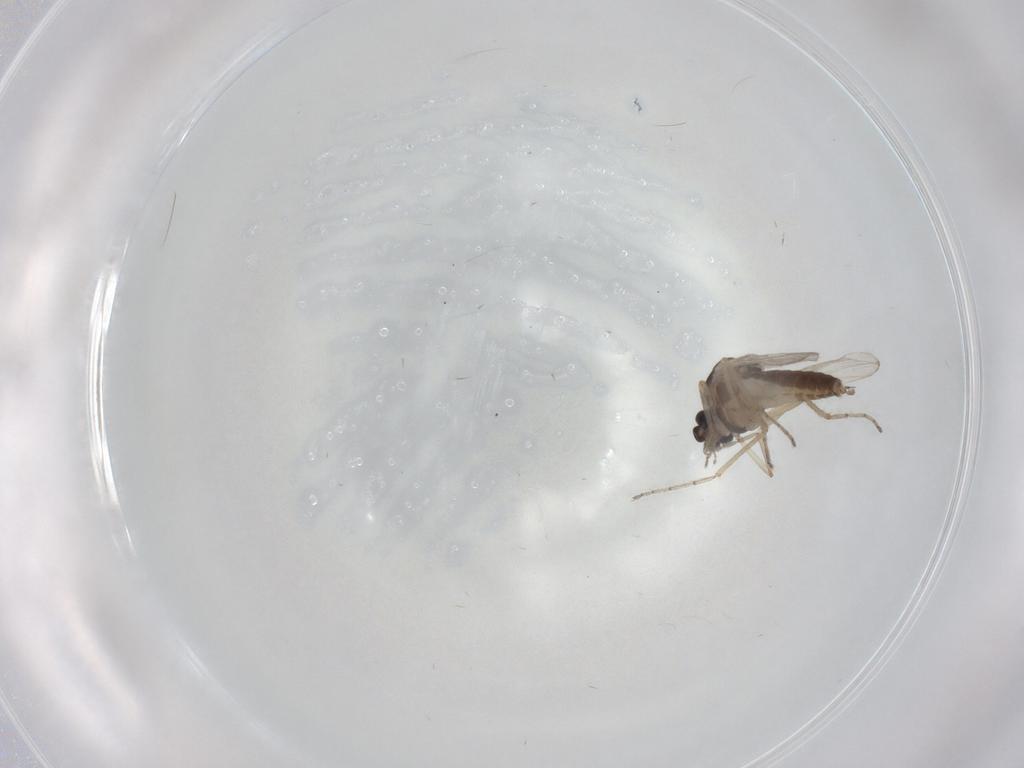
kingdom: Animalia
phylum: Arthropoda
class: Insecta
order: Diptera
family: Ceratopogonidae
